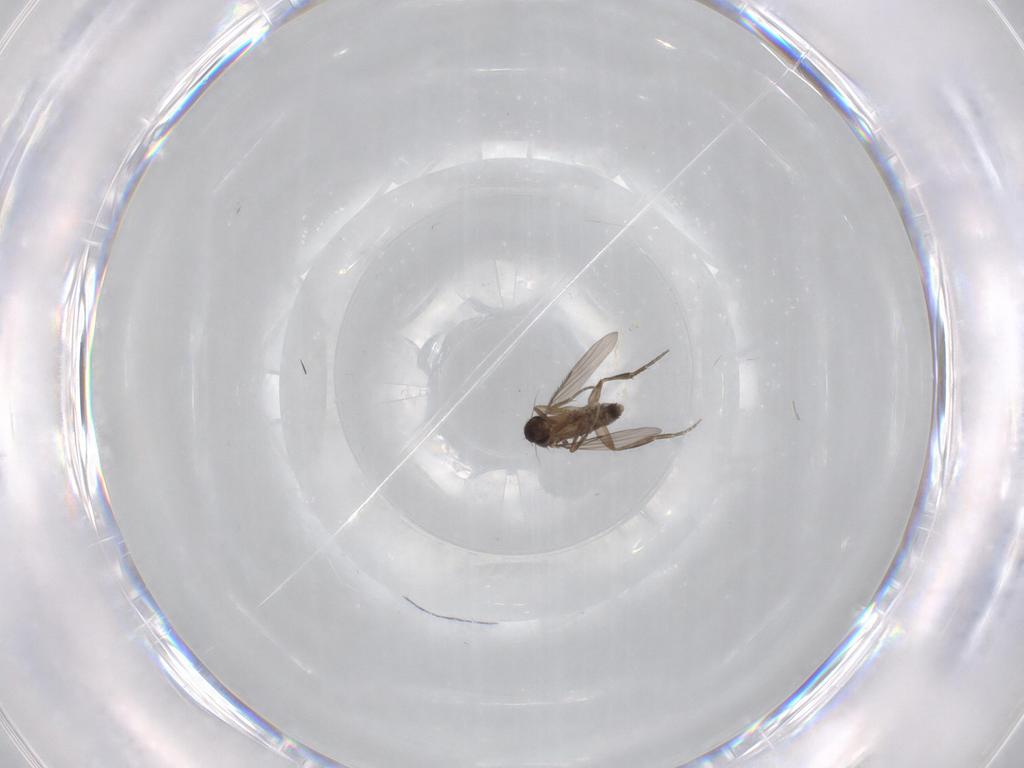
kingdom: Animalia
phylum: Arthropoda
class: Insecta
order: Diptera
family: Phoridae
